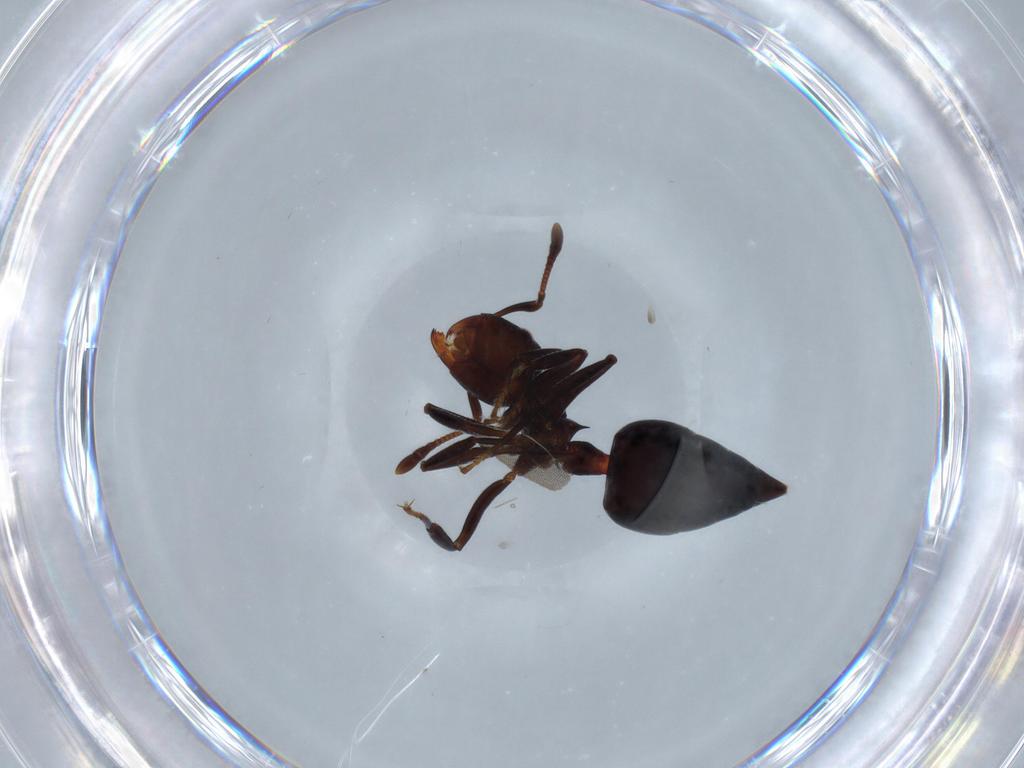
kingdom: Animalia
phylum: Arthropoda
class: Insecta
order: Hymenoptera
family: Formicidae
